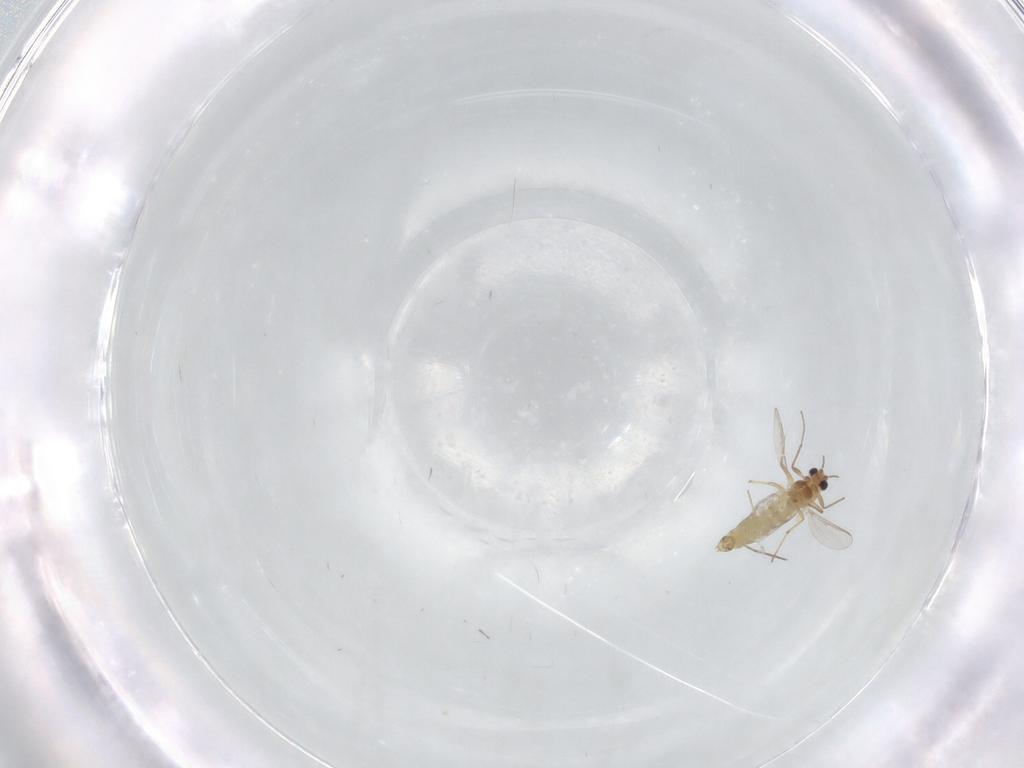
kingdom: Animalia
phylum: Arthropoda
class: Insecta
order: Diptera
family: Chironomidae
